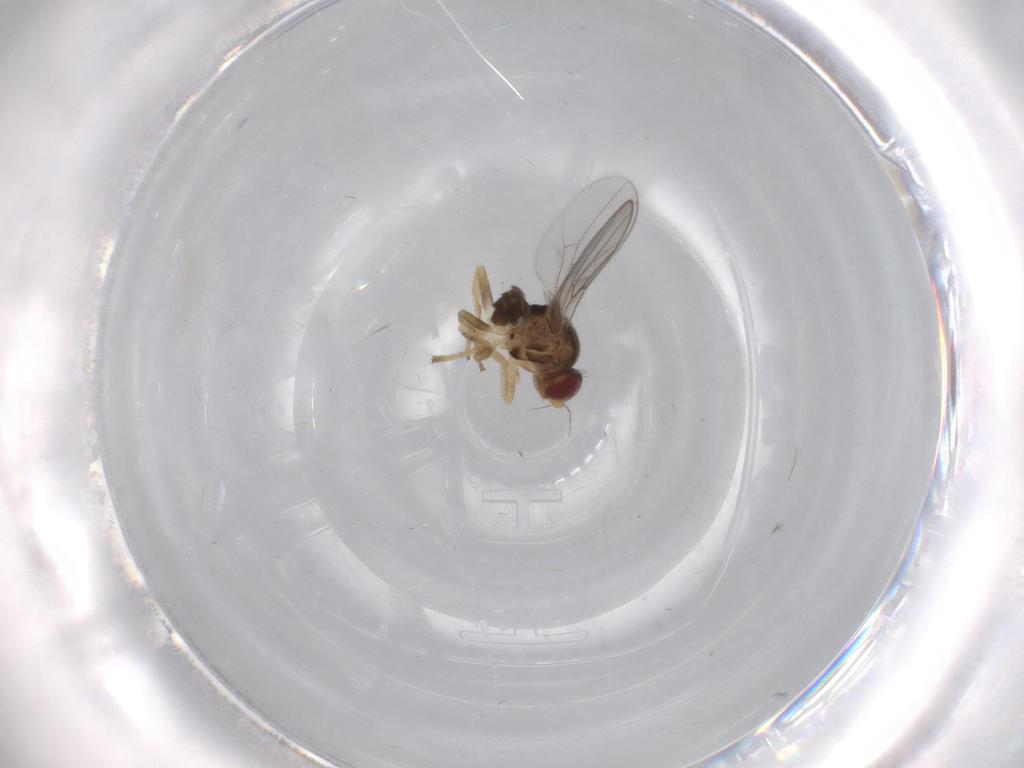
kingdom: Animalia
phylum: Arthropoda
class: Insecta
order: Diptera
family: Chloropidae
